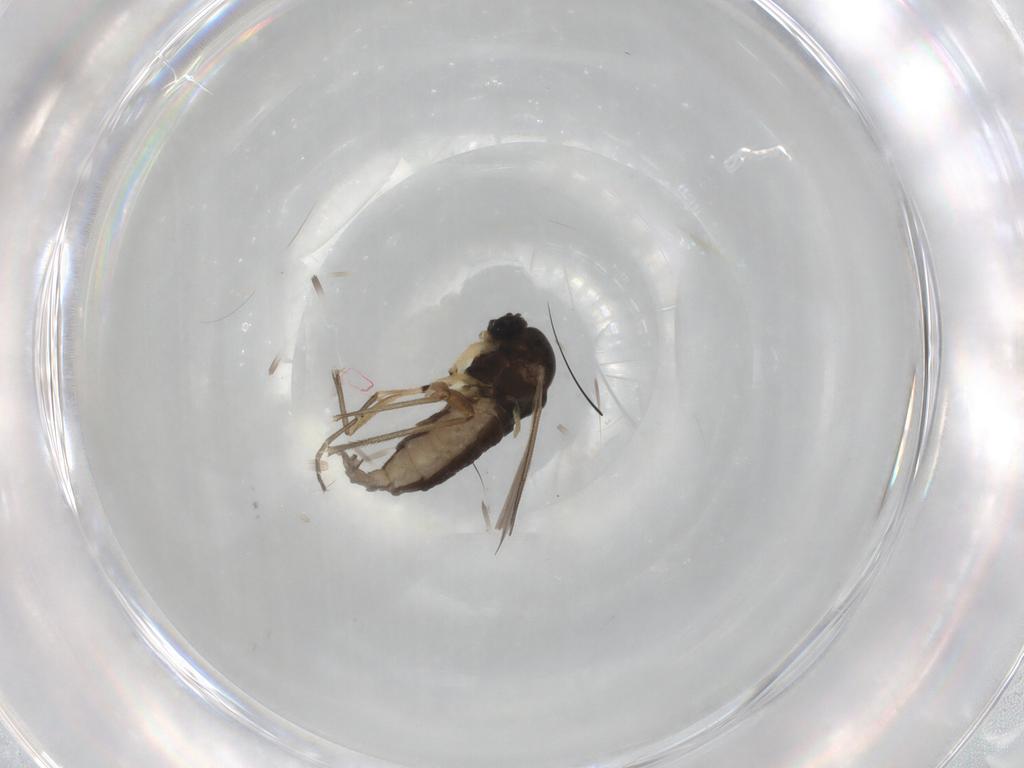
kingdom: Animalia
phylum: Arthropoda
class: Insecta
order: Diptera
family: Sciaridae
